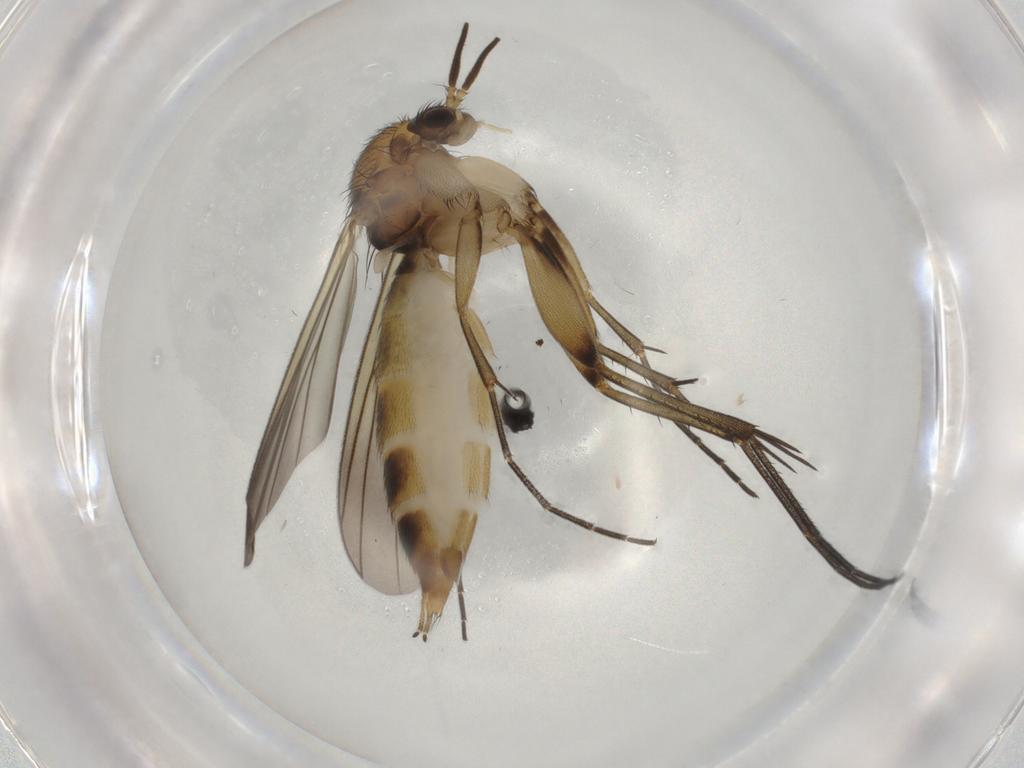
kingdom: Animalia
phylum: Arthropoda
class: Insecta
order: Diptera
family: Mycetophilidae
